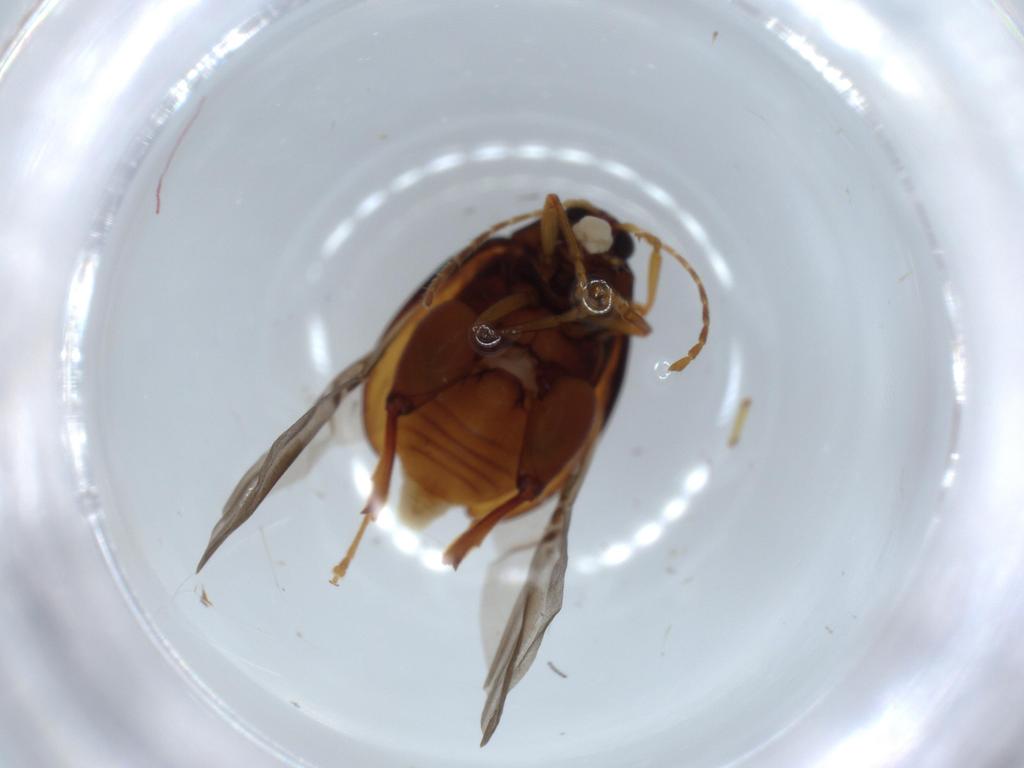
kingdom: Animalia
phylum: Arthropoda
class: Insecta
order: Coleoptera
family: Chrysomelidae
